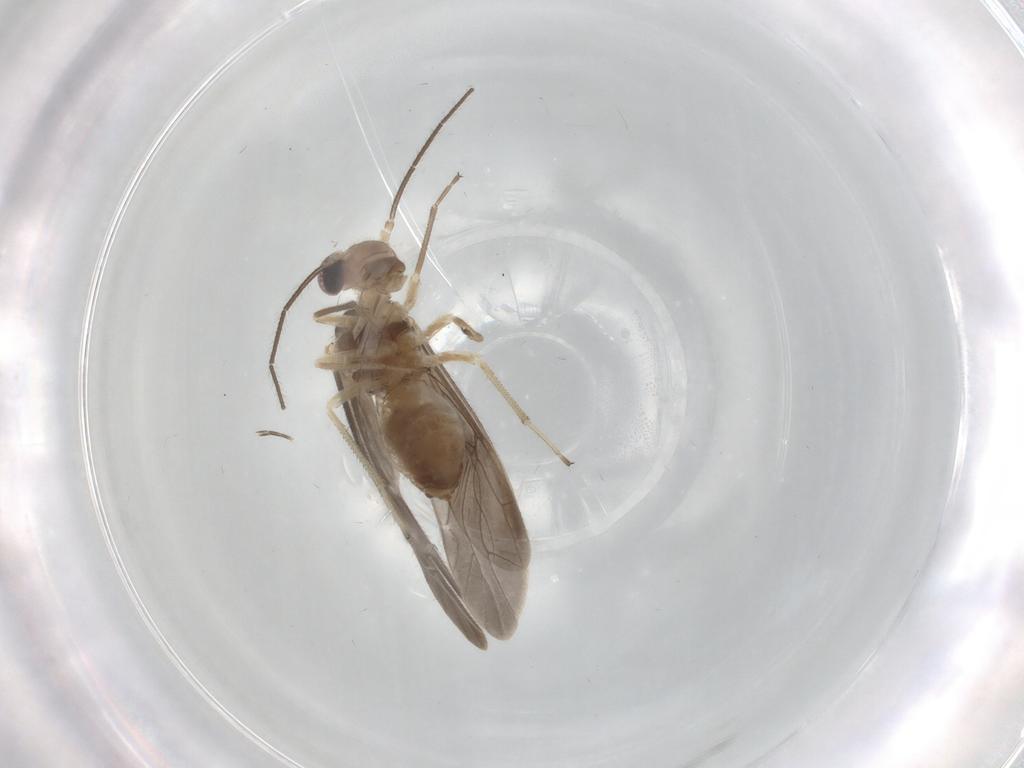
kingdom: Animalia
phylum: Arthropoda
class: Insecta
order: Psocodea
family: Caeciliusidae
